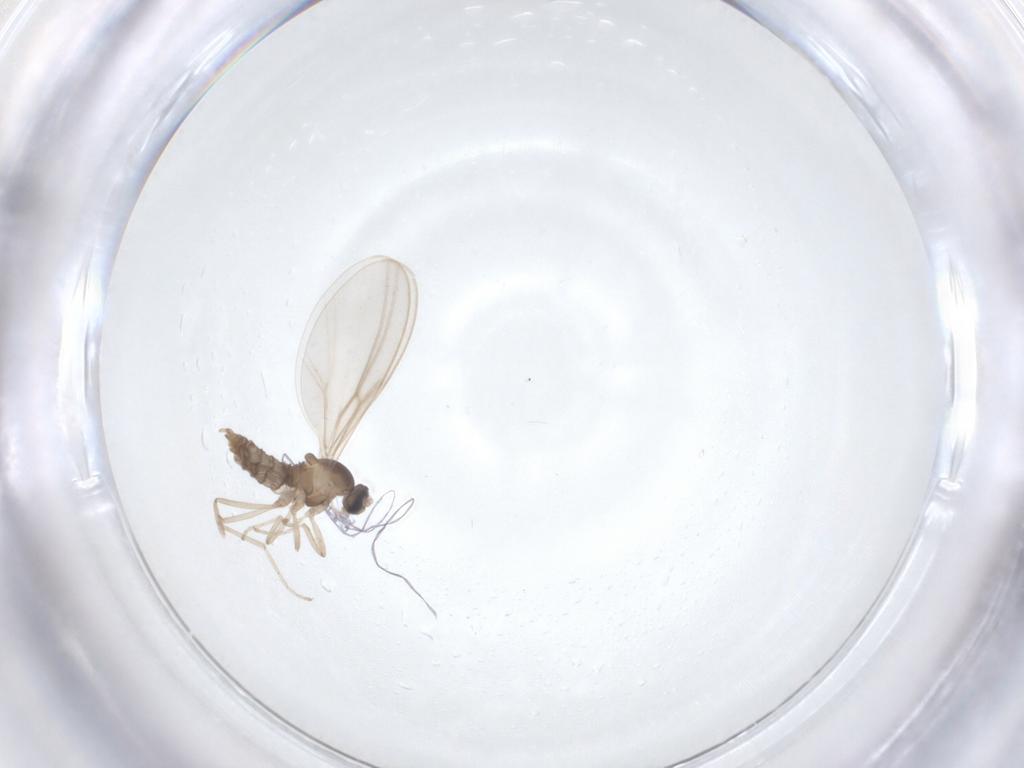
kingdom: Animalia
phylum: Arthropoda
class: Insecta
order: Diptera
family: Cecidomyiidae
